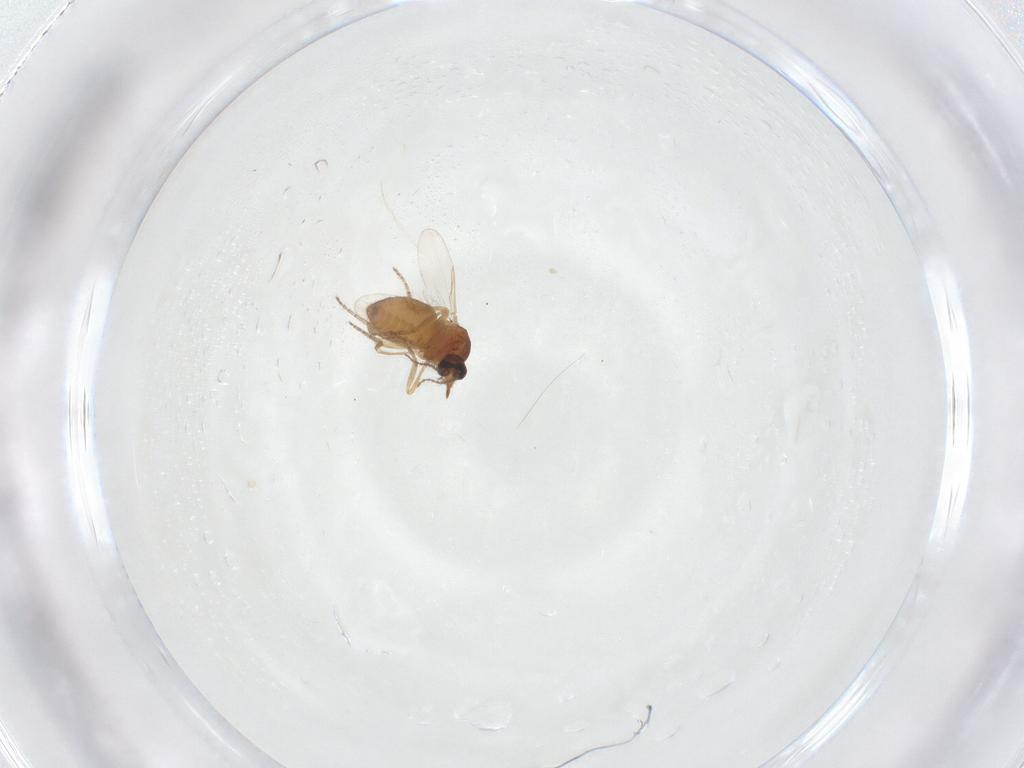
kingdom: Animalia
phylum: Arthropoda
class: Insecta
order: Diptera
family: Ceratopogonidae
